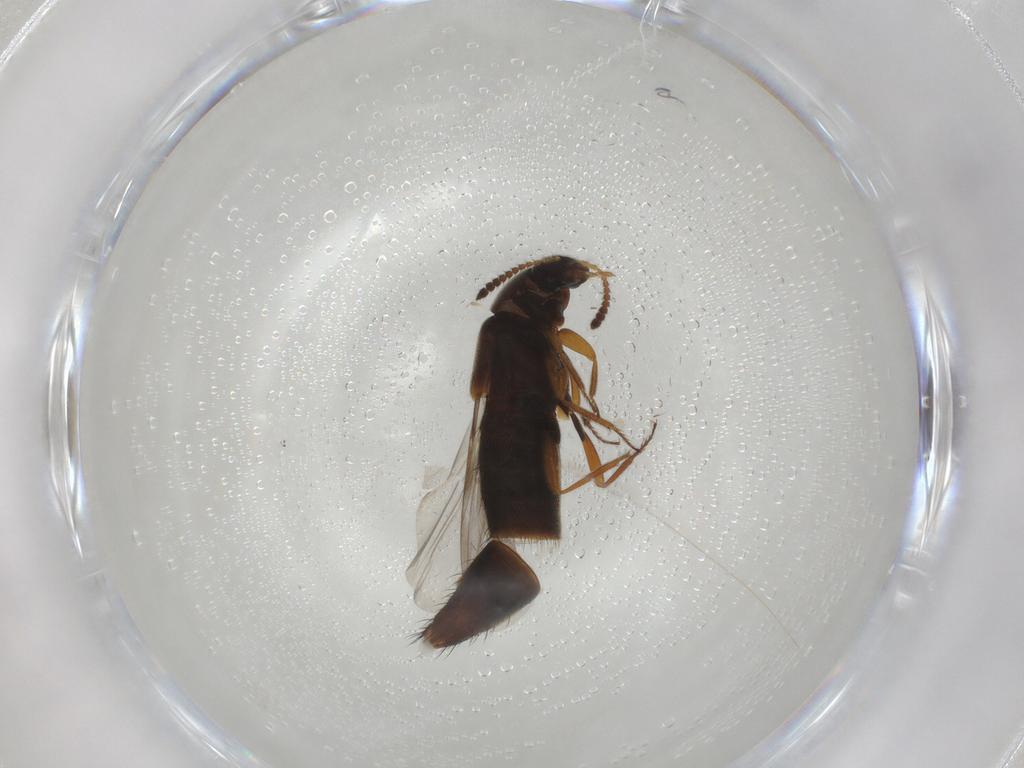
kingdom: Animalia
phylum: Arthropoda
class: Insecta
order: Coleoptera
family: Staphylinidae
